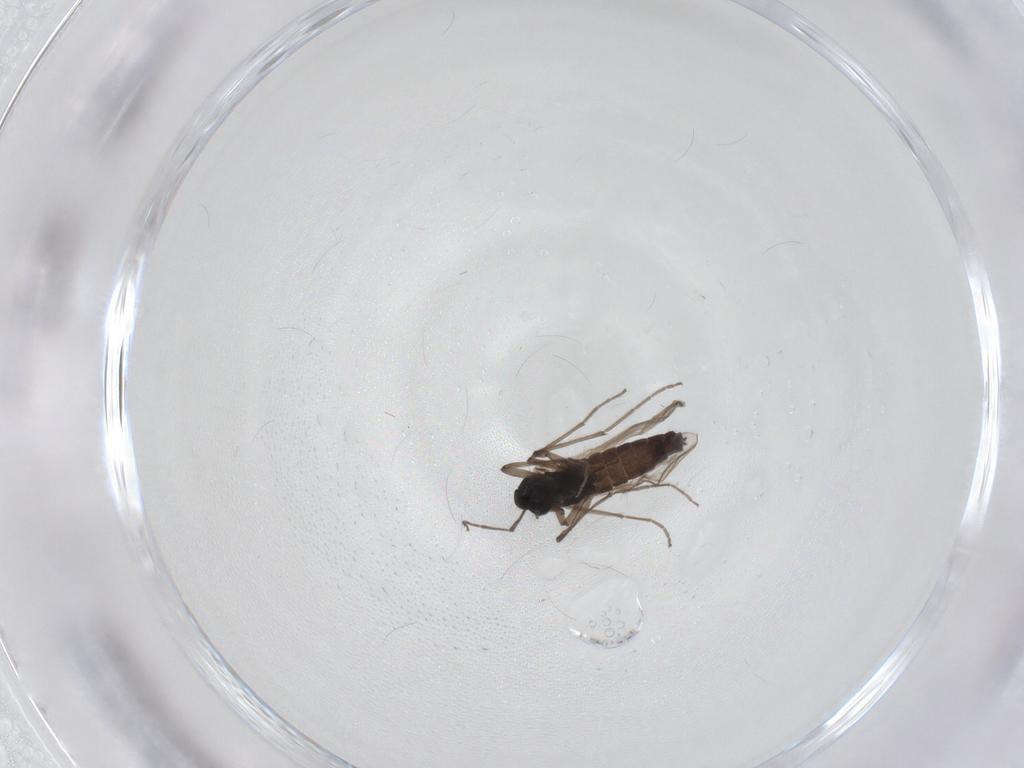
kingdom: Animalia
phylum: Arthropoda
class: Insecta
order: Diptera
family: Chironomidae
